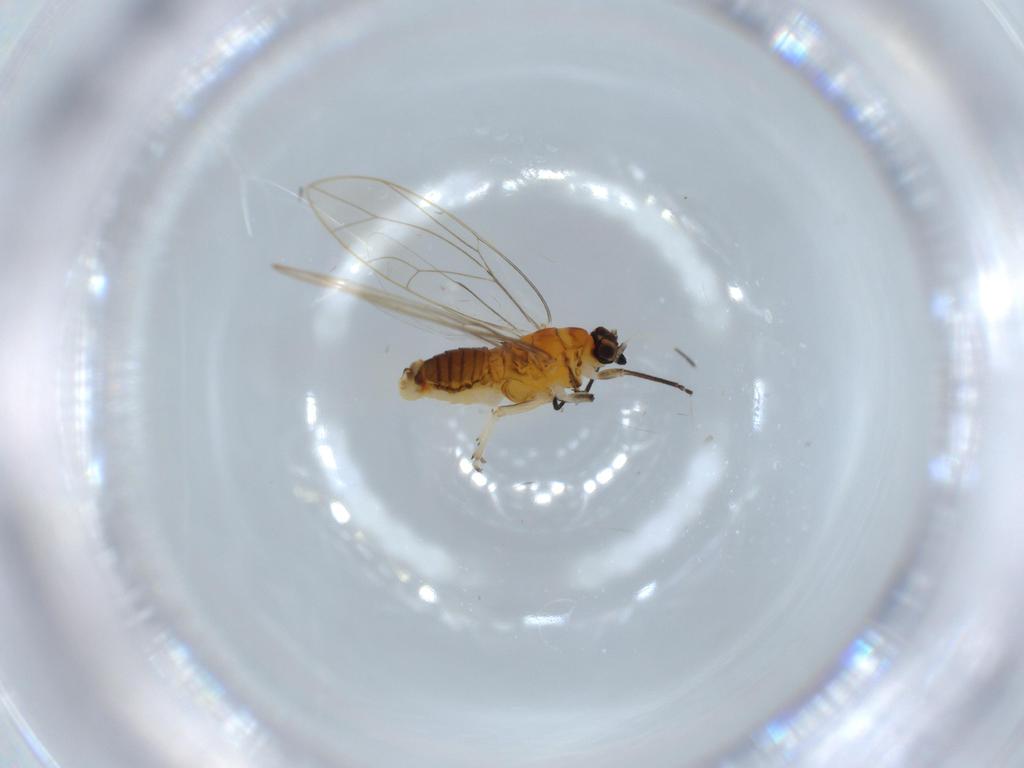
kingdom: Animalia
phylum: Arthropoda
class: Insecta
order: Hemiptera
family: Triozidae
